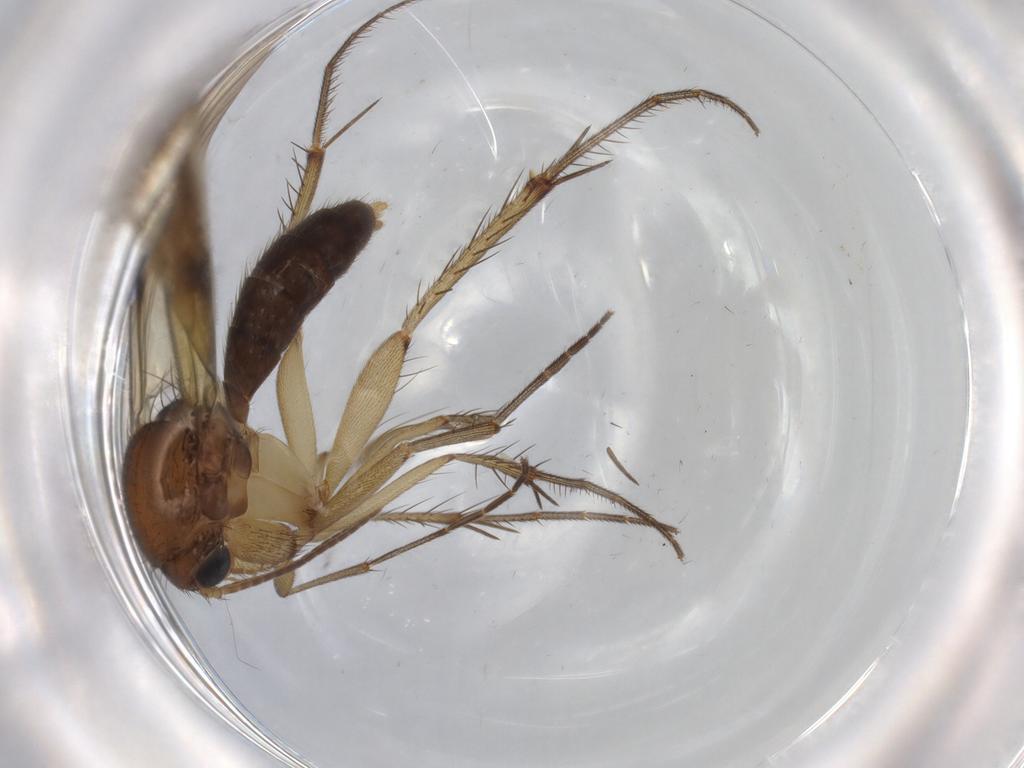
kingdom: Animalia
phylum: Arthropoda
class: Insecta
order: Diptera
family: Mycetophilidae
